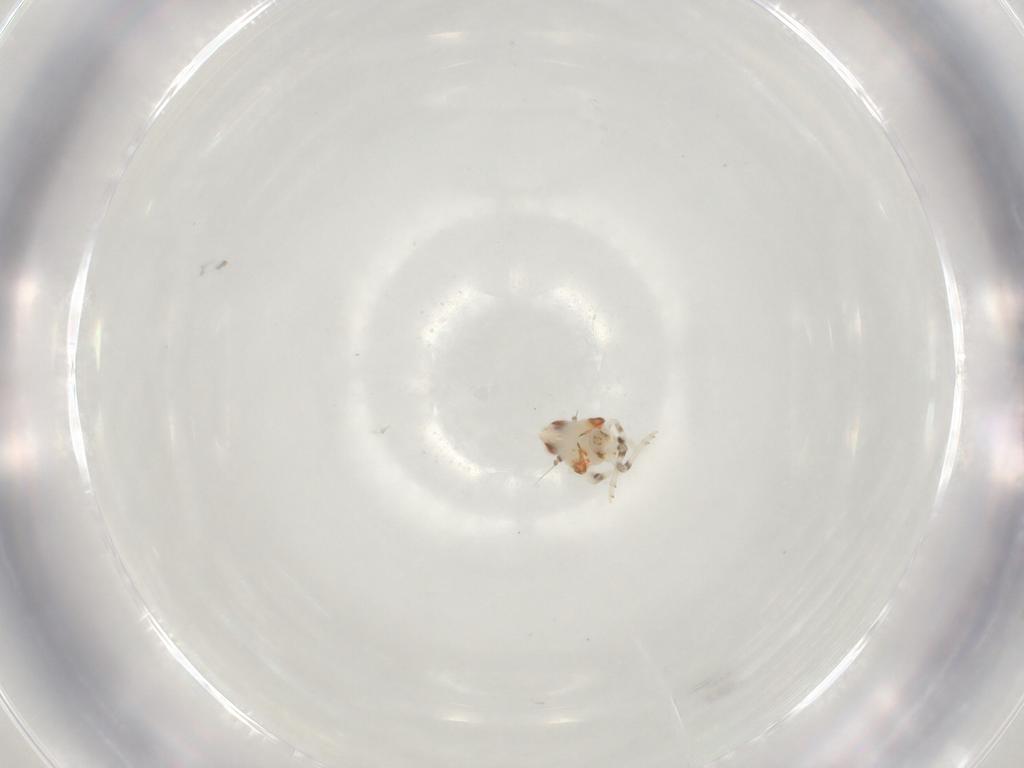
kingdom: Animalia
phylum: Arthropoda
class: Insecta
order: Hemiptera
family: Nogodinidae
